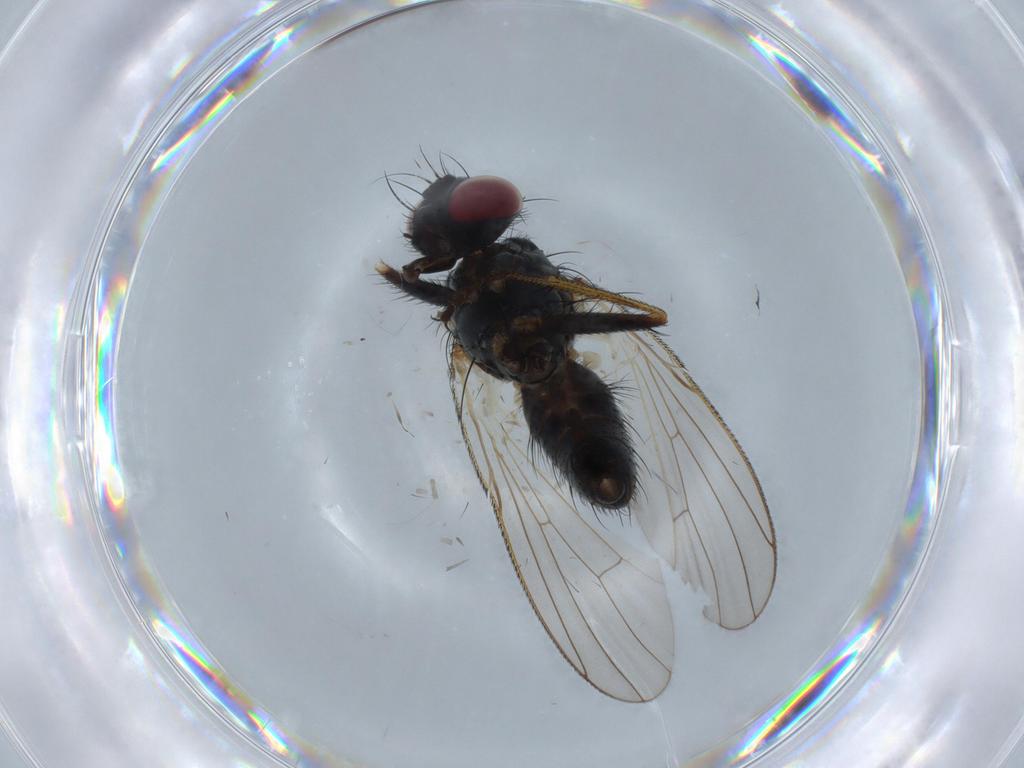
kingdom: Animalia
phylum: Arthropoda
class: Insecta
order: Diptera
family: Muscidae
